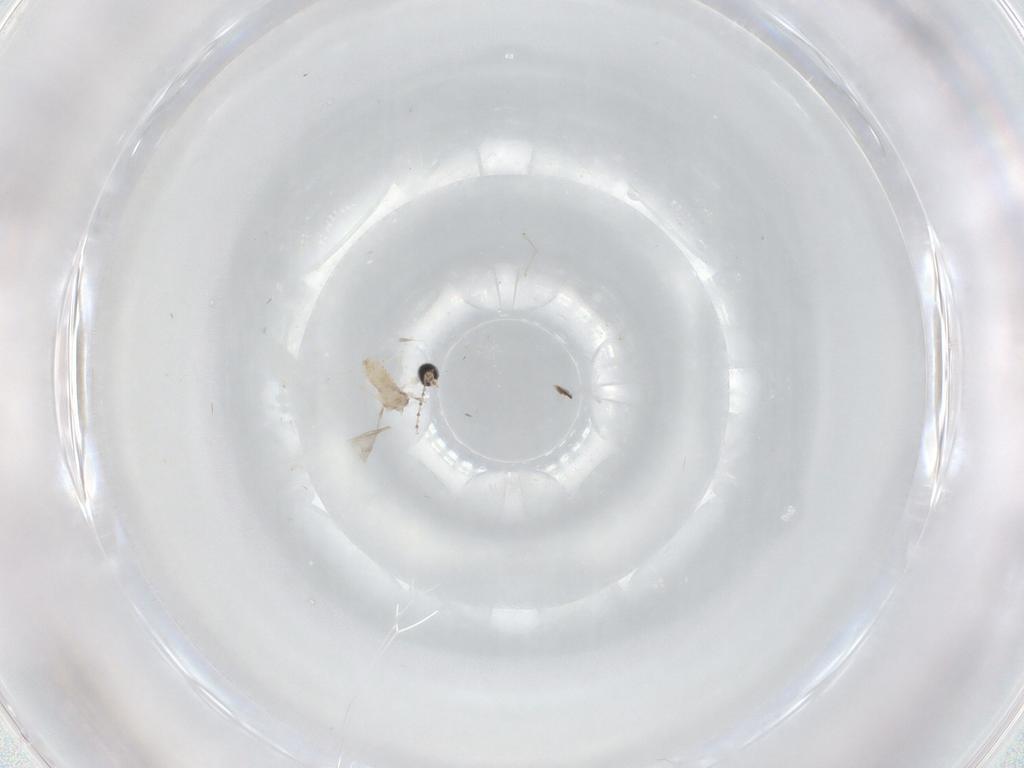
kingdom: Animalia
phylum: Arthropoda
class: Insecta
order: Diptera
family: Cecidomyiidae
